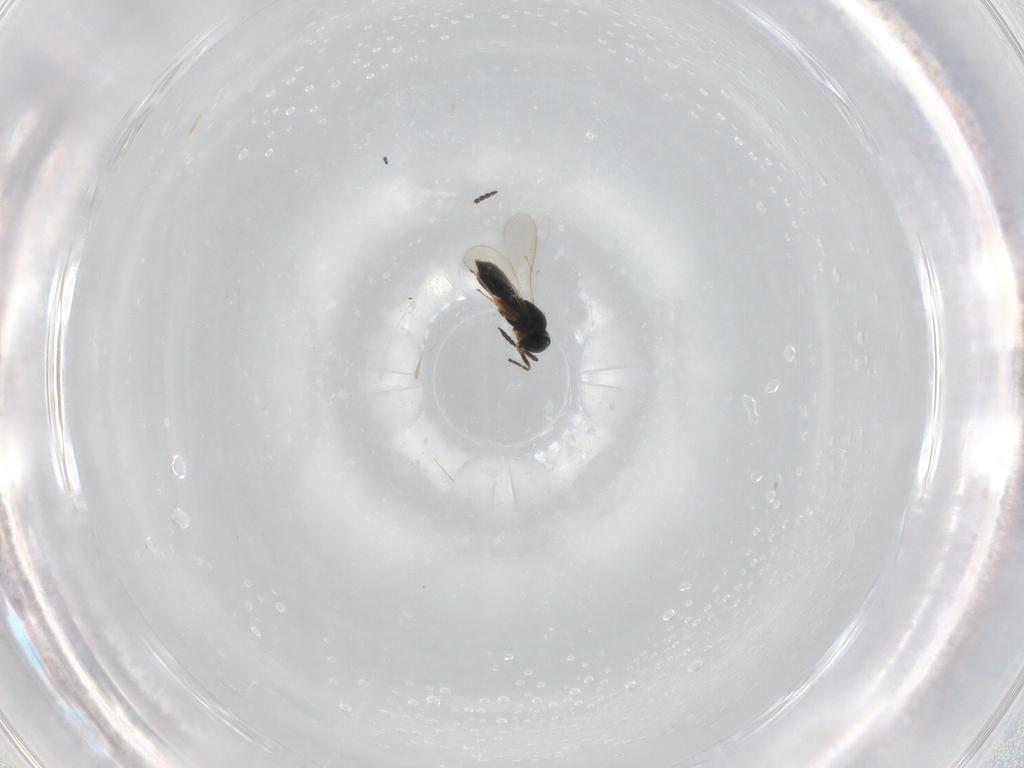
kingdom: Animalia
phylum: Arthropoda
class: Insecta
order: Hymenoptera
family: Scelionidae
